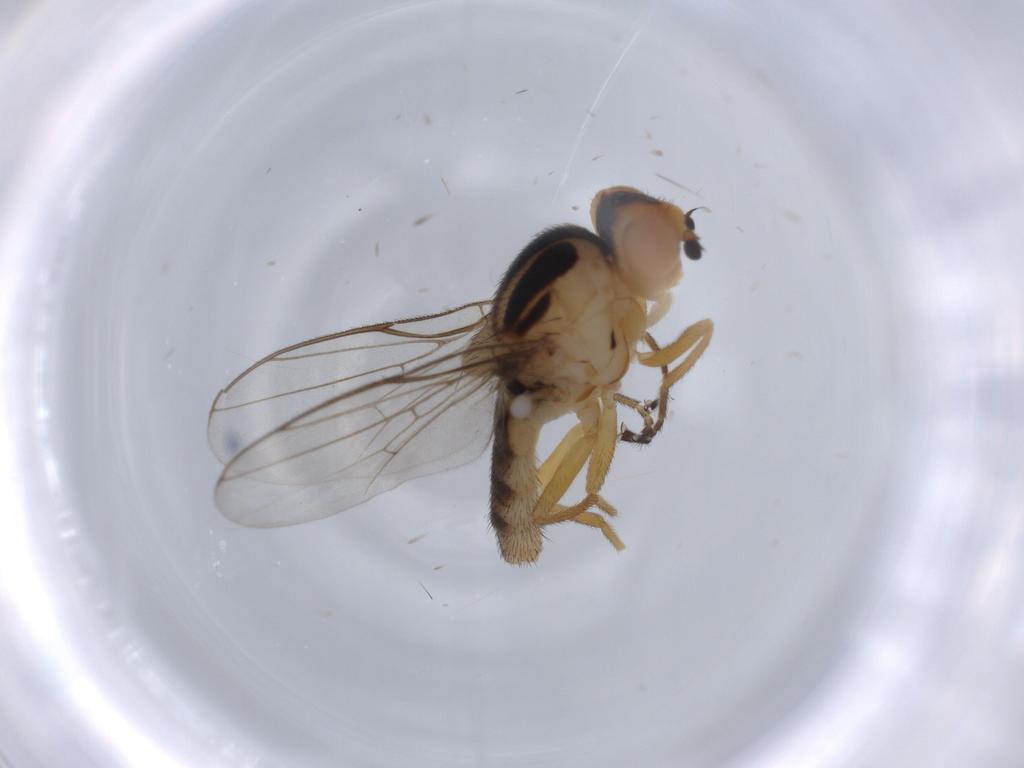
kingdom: Animalia
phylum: Arthropoda
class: Insecta
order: Diptera
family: Chloropidae
